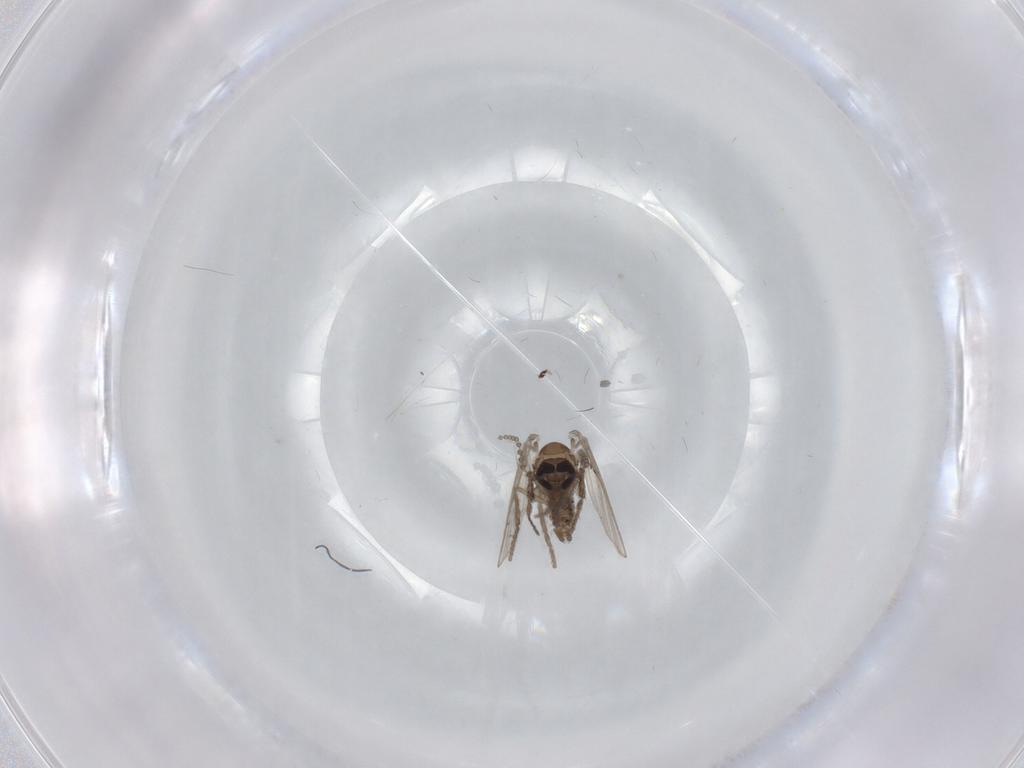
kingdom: Animalia
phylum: Arthropoda
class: Insecta
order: Diptera
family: Psychodidae
